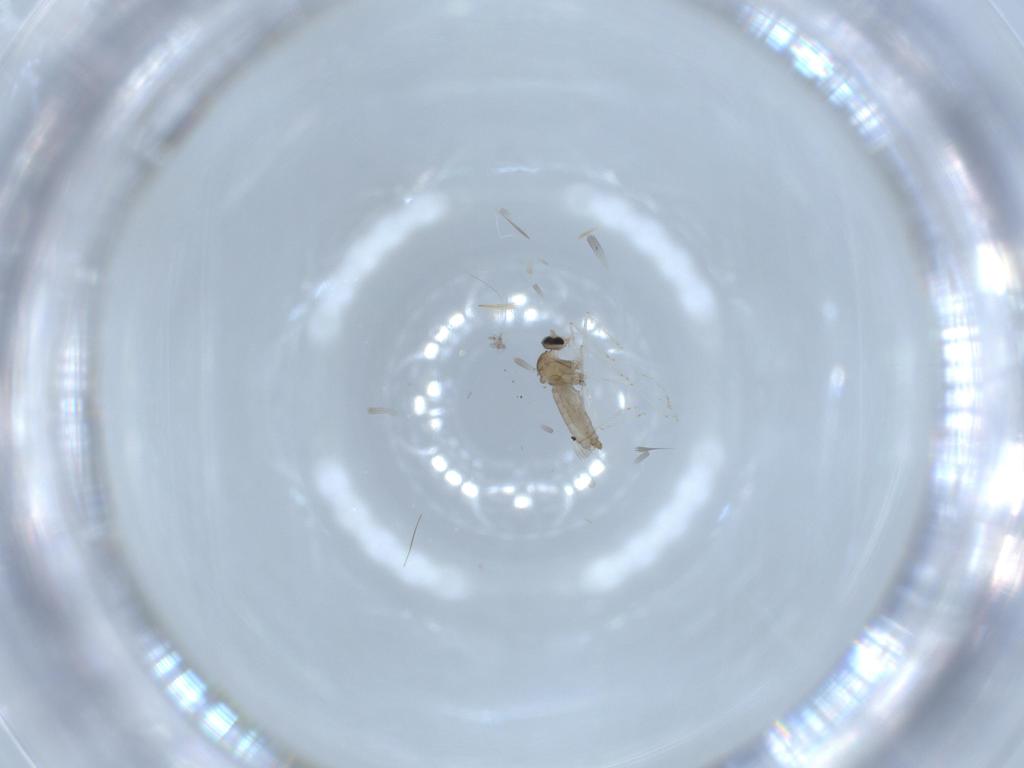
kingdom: Animalia
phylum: Arthropoda
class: Insecta
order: Diptera
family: Cecidomyiidae
